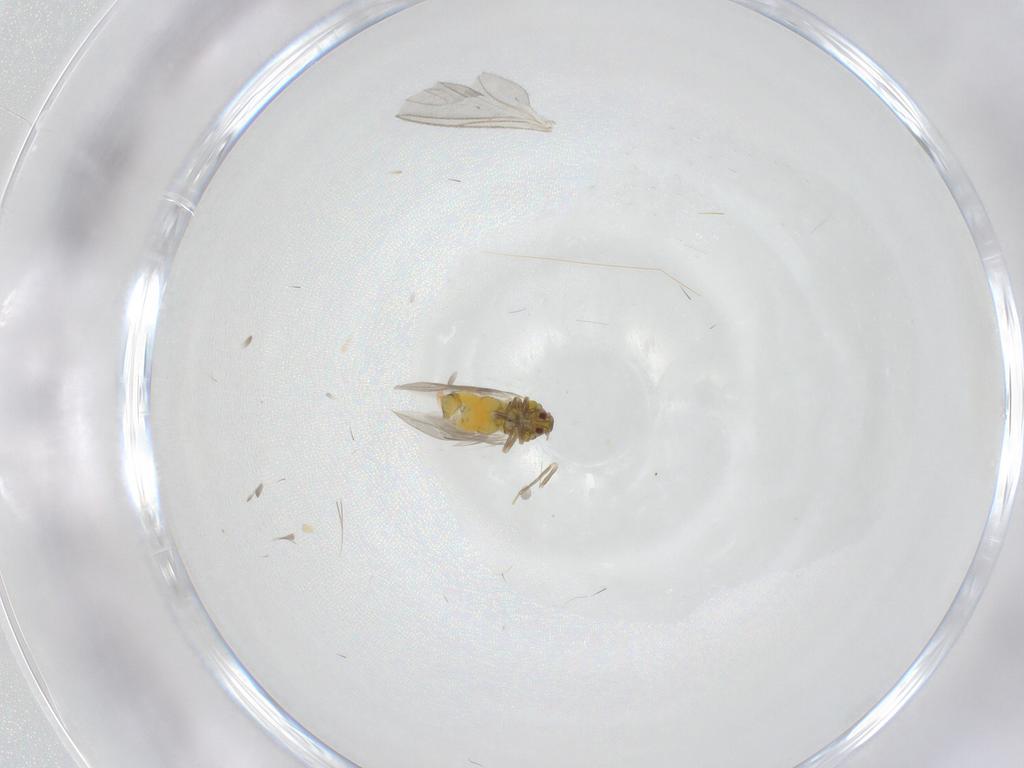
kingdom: Animalia
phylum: Arthropoda
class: Insecta
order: Hemiptera
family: Aleyrodidae
